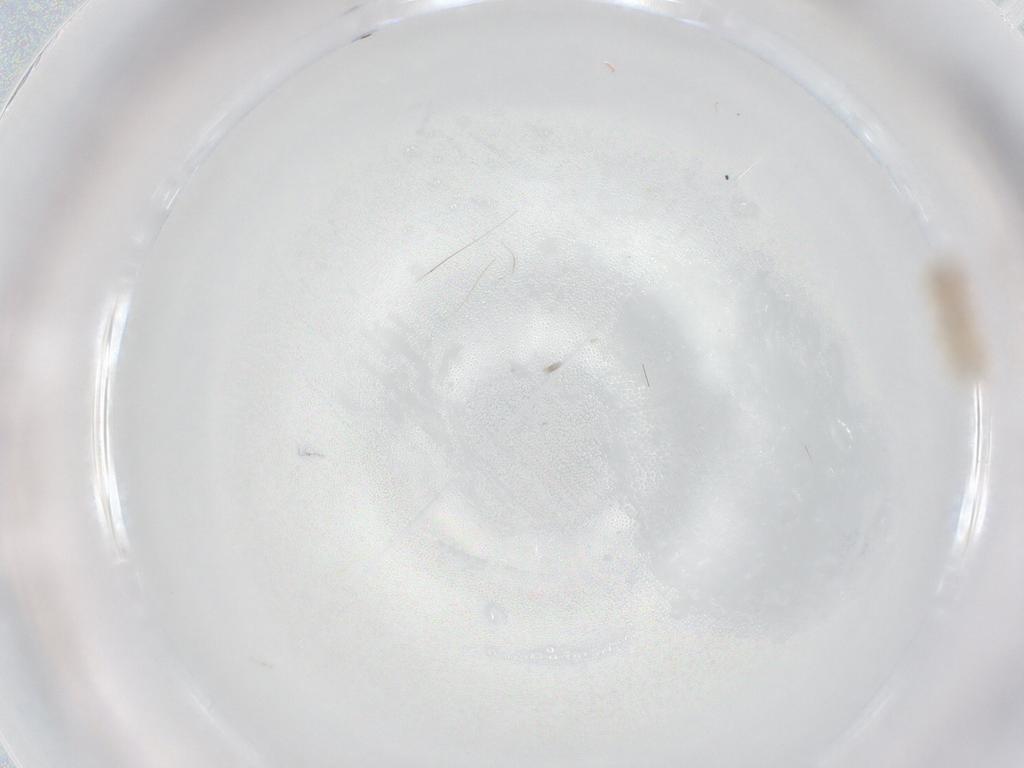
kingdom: Animalia
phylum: Arthropoda
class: Insecta
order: Diptera
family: Cecidomyiidae
